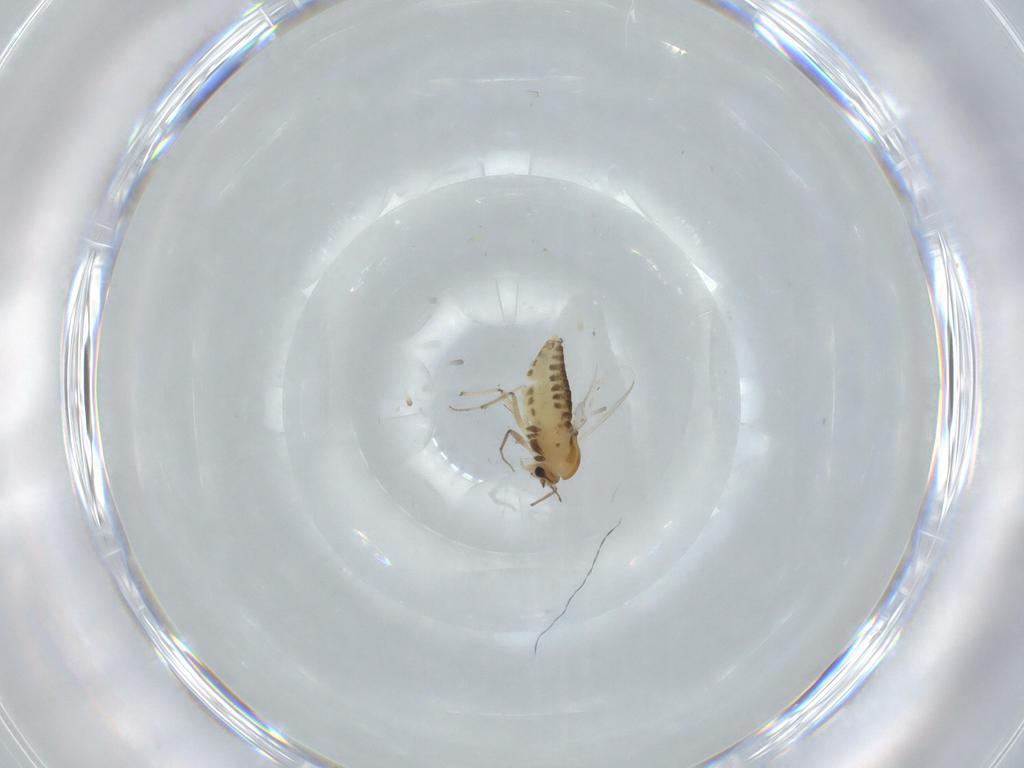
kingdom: Animalia
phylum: Arthropoda
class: Insecta
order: Diptera
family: Chironomidae
